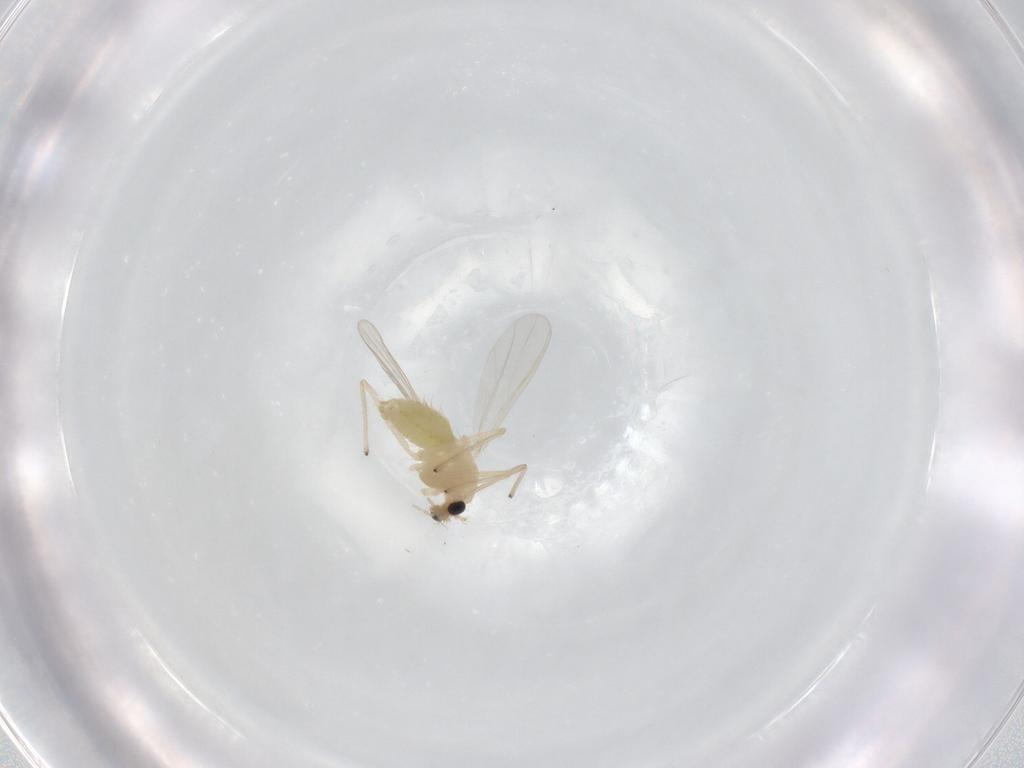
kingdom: Animalia
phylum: Arthropoda
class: Insecta
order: Diptera
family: Chironomidae
